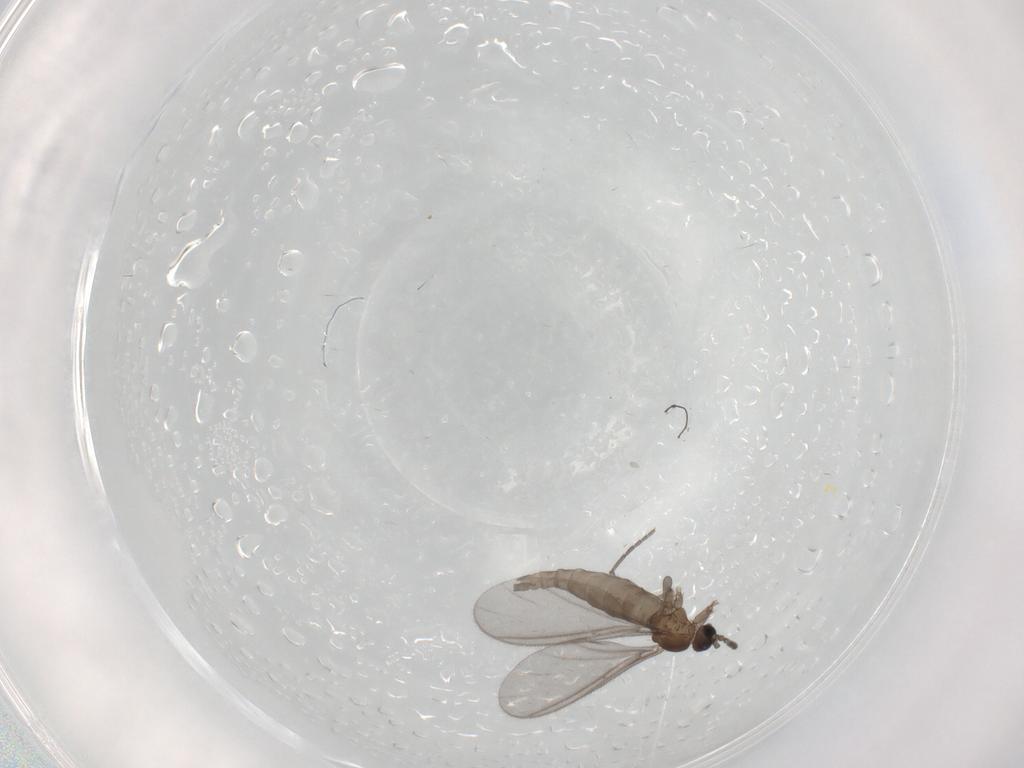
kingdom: Animalia
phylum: Arthropoda
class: Insecta
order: Diptera
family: Sciaridae
